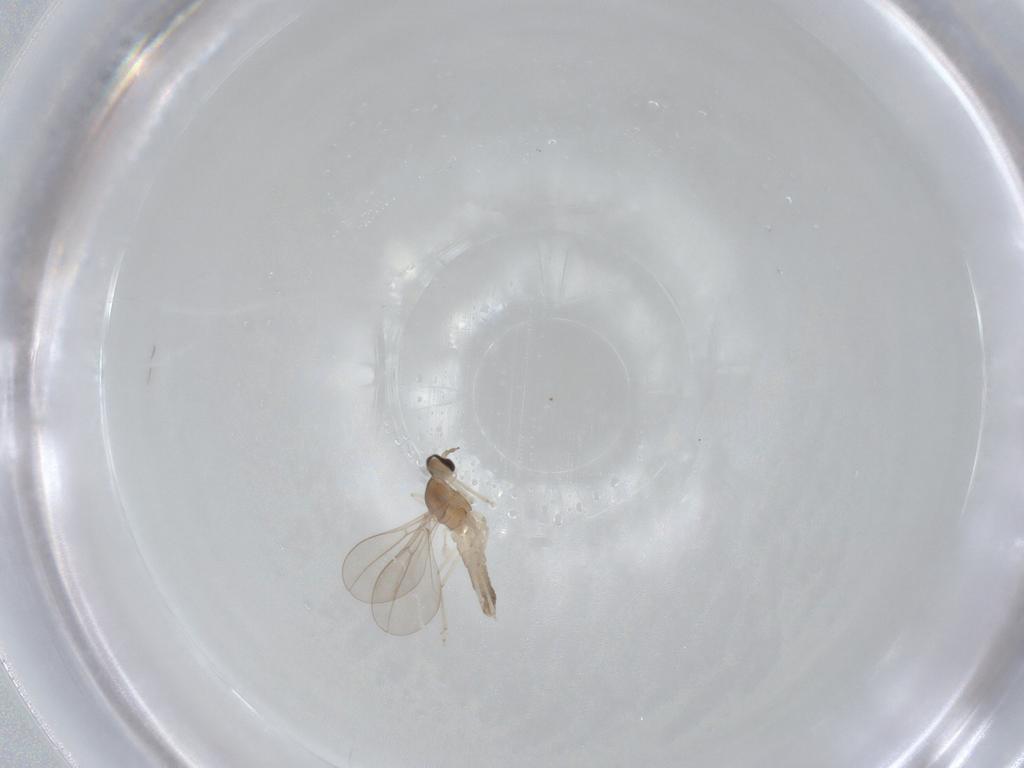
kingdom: Animalia
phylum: Arthropoda
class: Insecta
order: Diptera
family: Cecidomyiidae
